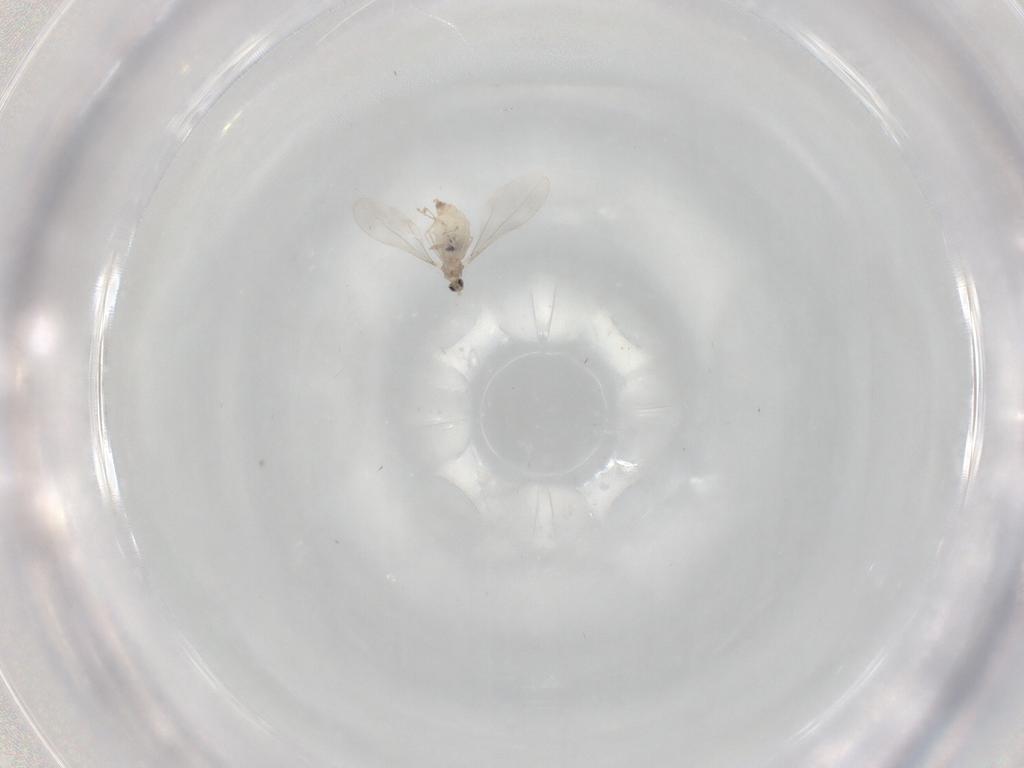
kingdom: Animalia
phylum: Arthropoda
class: Insecta
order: Diptera
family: Cecidomyiidae
